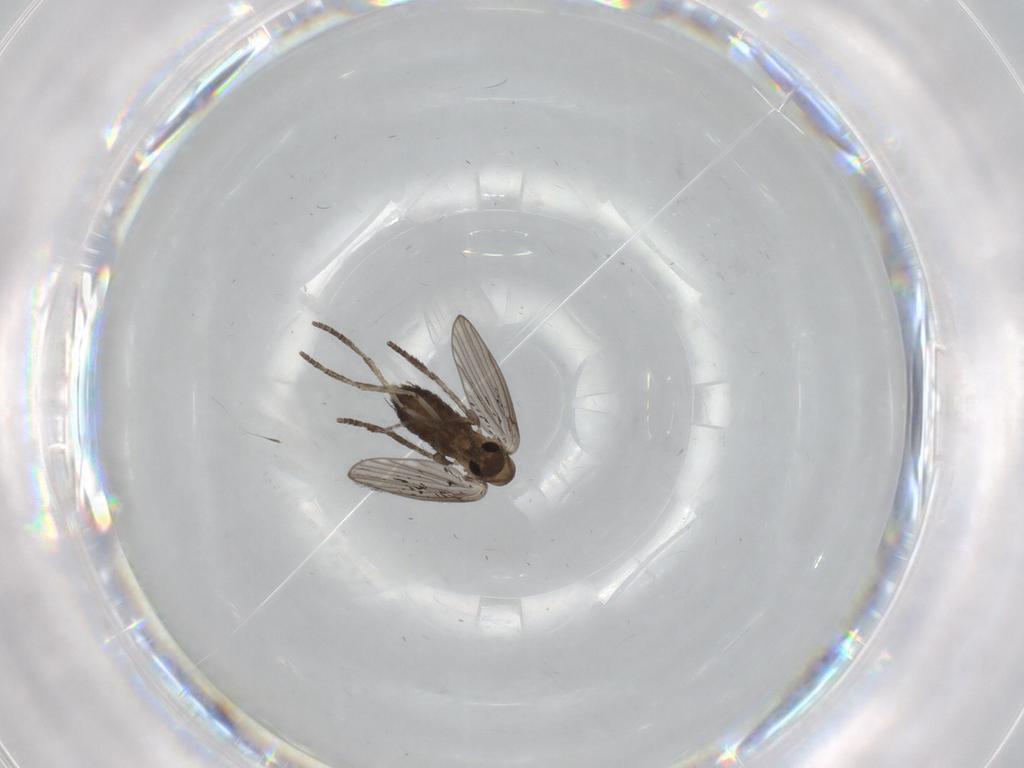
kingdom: Animalia
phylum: Arthropoda
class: Insecta
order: Diptera
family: Psychodidae
